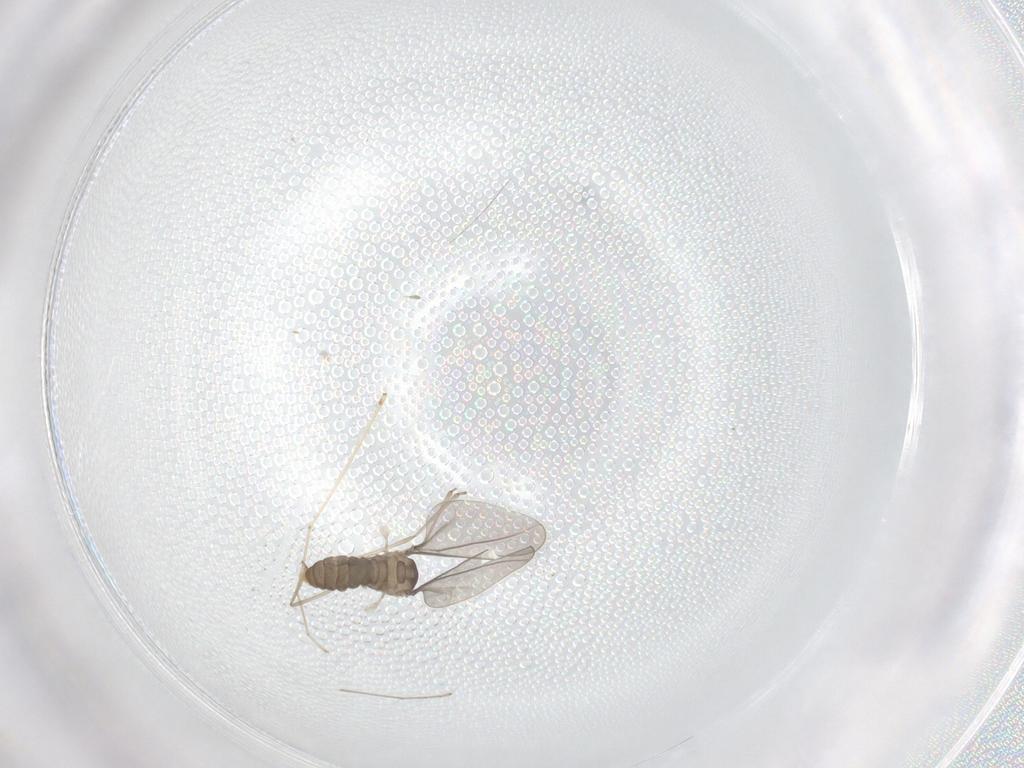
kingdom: Animalia
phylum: Arthropoda
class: Insecta
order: Diptera
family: Cecidomyiidae
